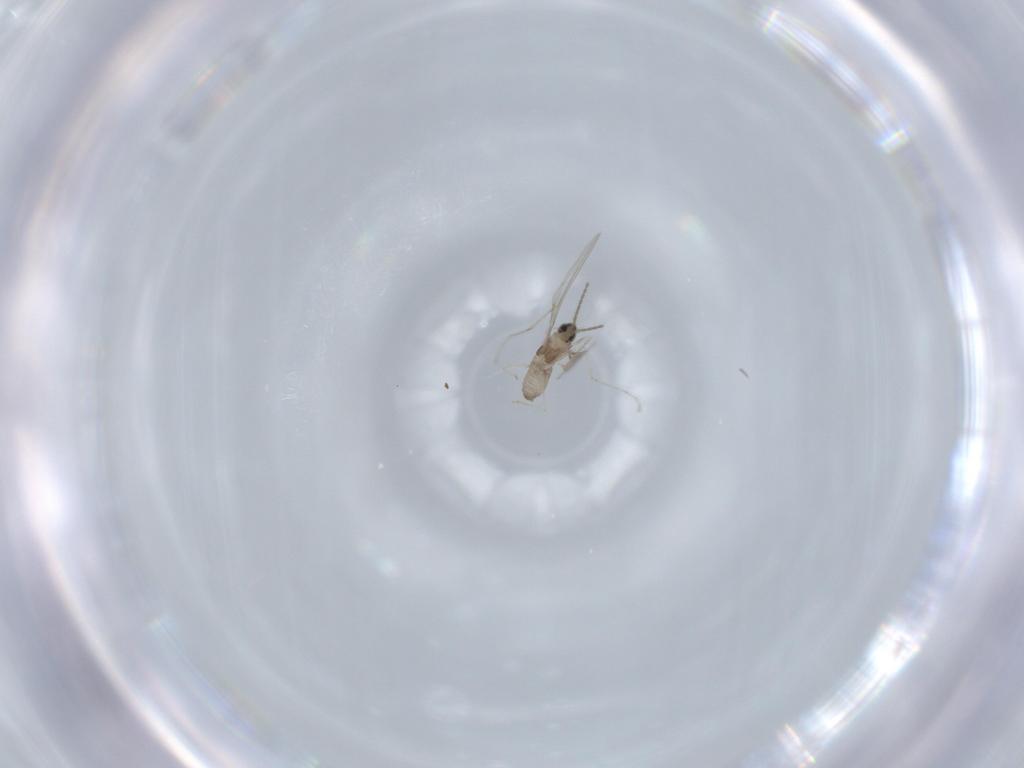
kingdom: Animalia
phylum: Arthropoda
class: Insecta
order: Diptera
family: Cecidomyiidae
